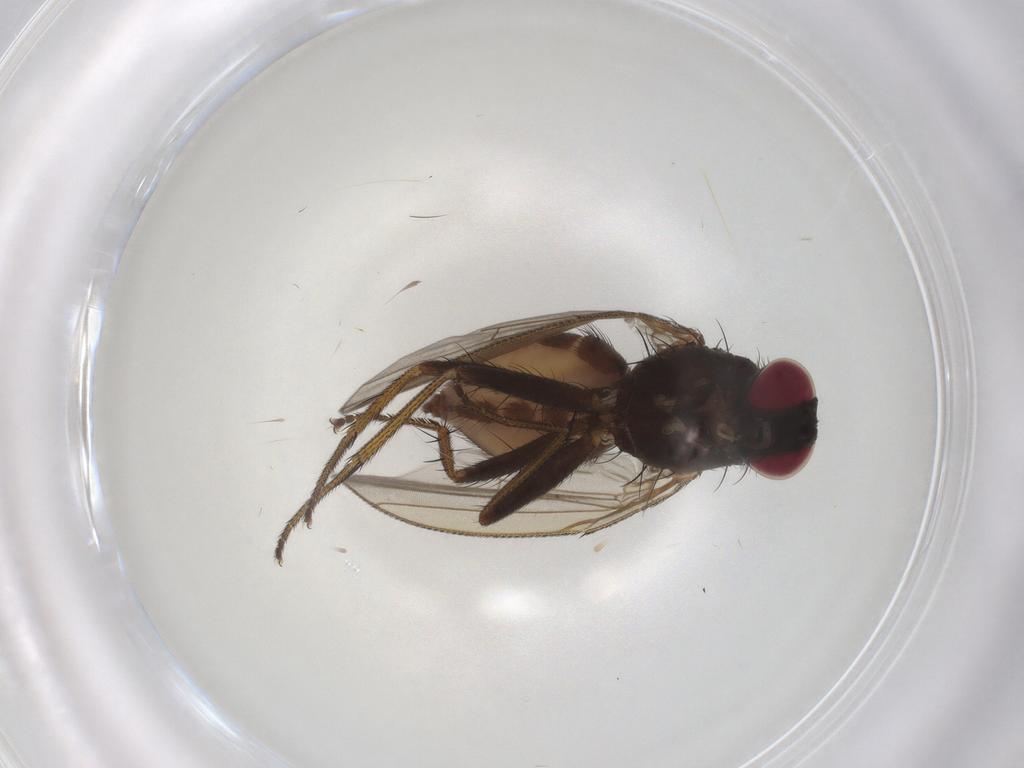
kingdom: Animalia
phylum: Arthropoda
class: Insecta
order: Diptera
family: Muscidae
